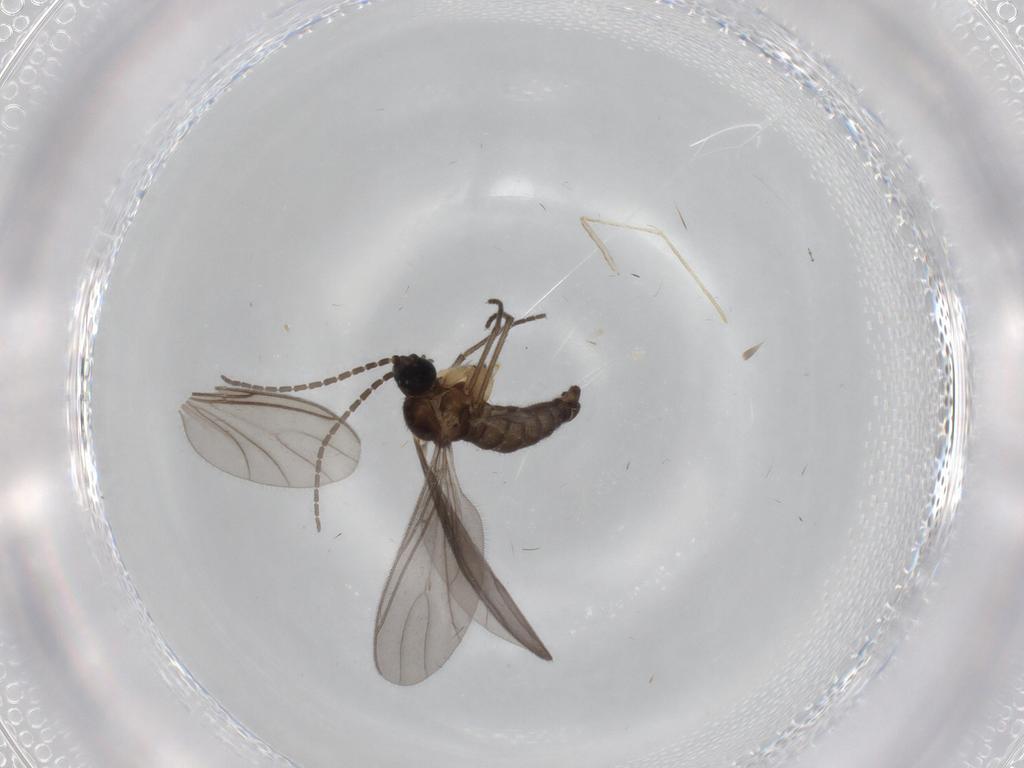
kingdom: Animalia
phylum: Arthropoda
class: Insecta
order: Diptera
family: Sciaridae
